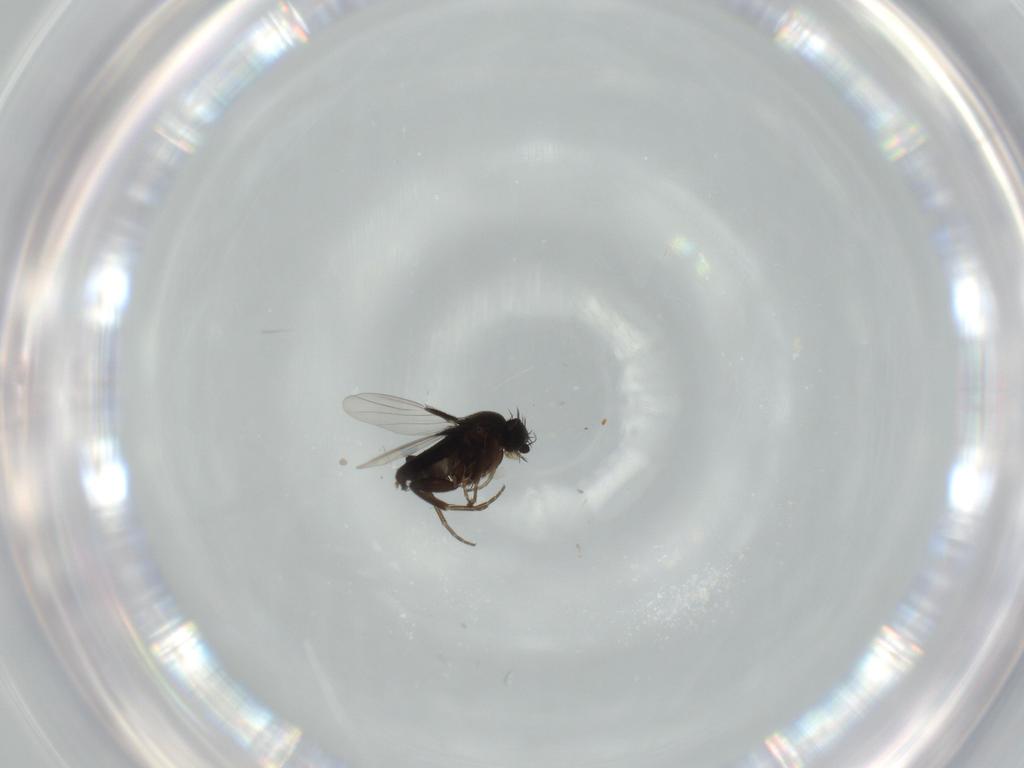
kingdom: Animalia
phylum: Arthropoda
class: Insecta
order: Diptera
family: Phoridae
